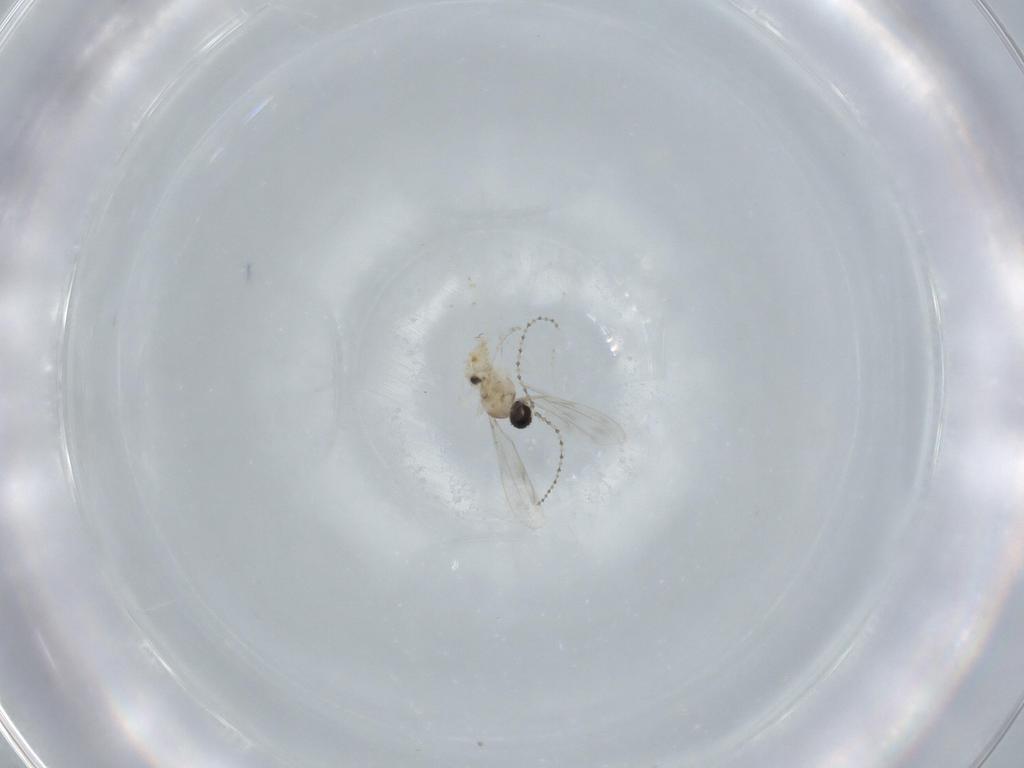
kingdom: Animalia
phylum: Arthropoda
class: Insecta
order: Diptera
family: Cecidomyiidae
